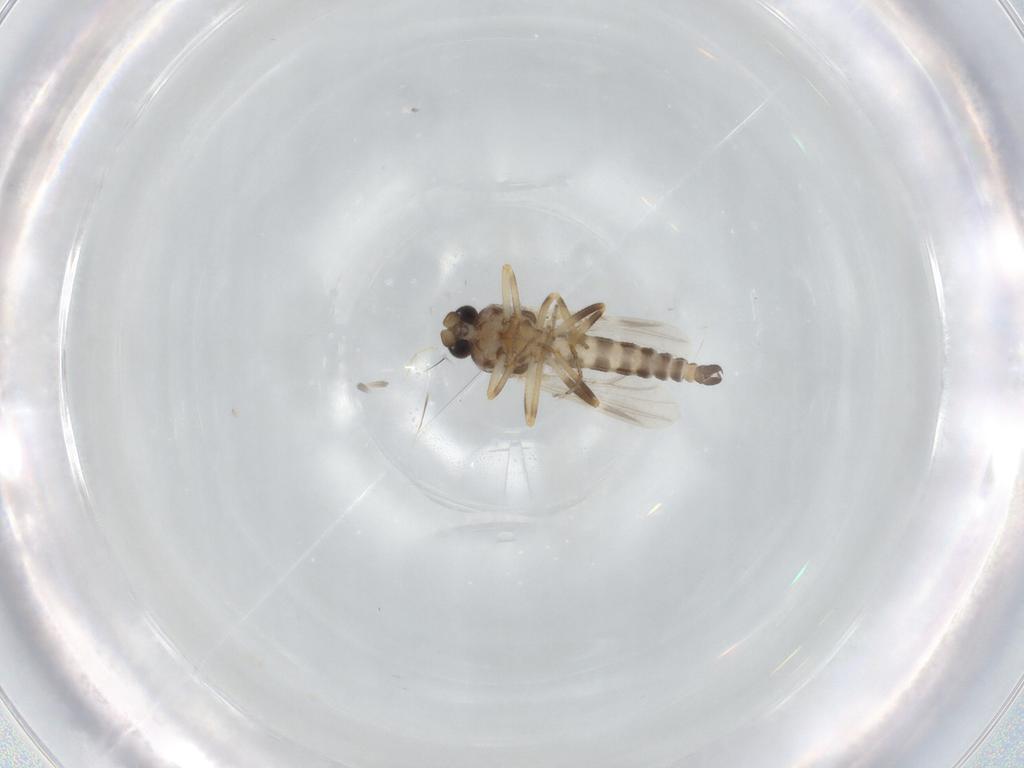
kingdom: Animalia
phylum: Arthropoda
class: Insecta
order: Diptera
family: Ceratopogonidae
